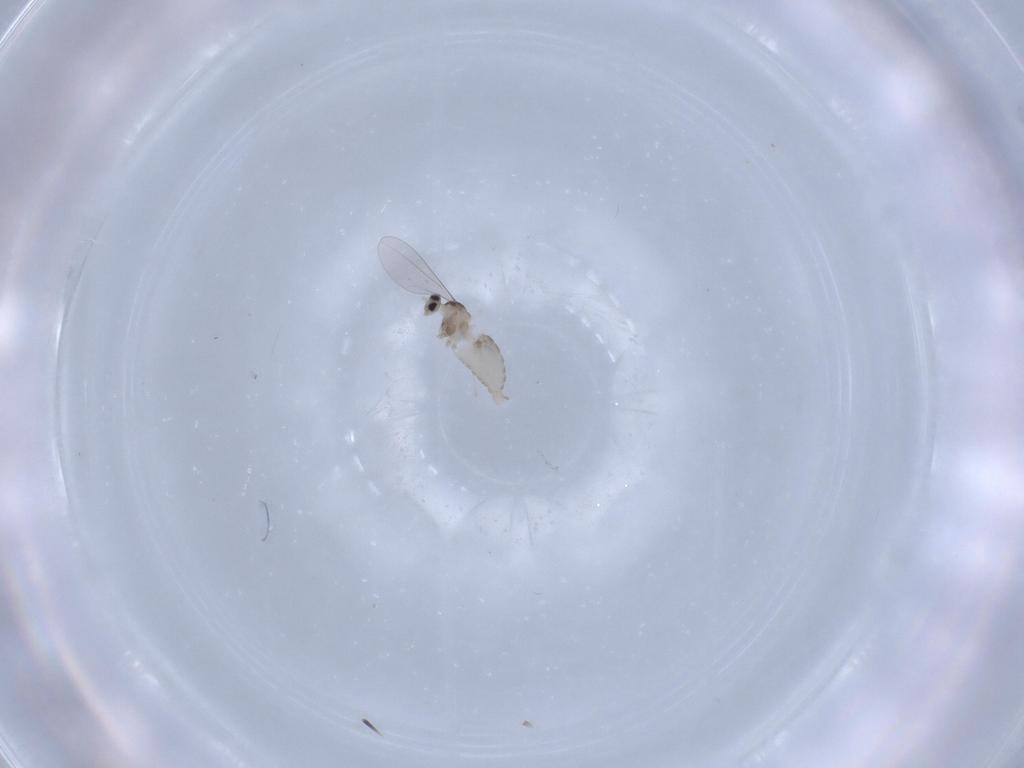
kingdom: Animalia
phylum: Arthropoda
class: Insecta
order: Diptera
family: Cecidomyiidae
